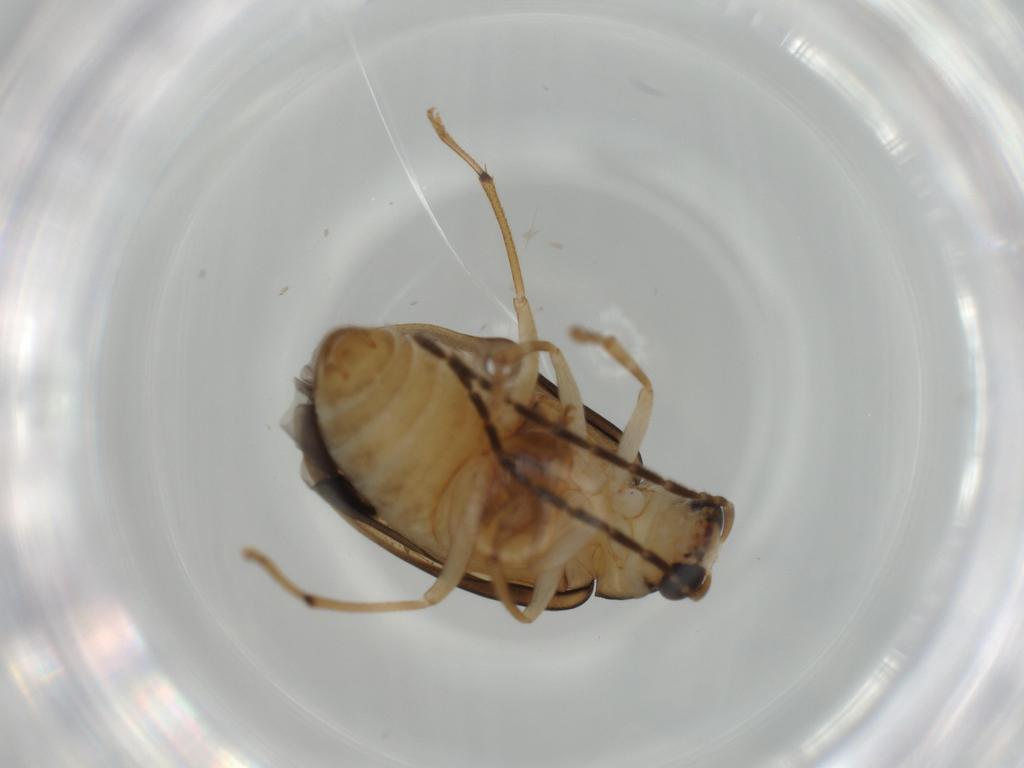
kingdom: Animalia
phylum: Arthropoda
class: Insecta
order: Coleoptera
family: Chrysomelidae
